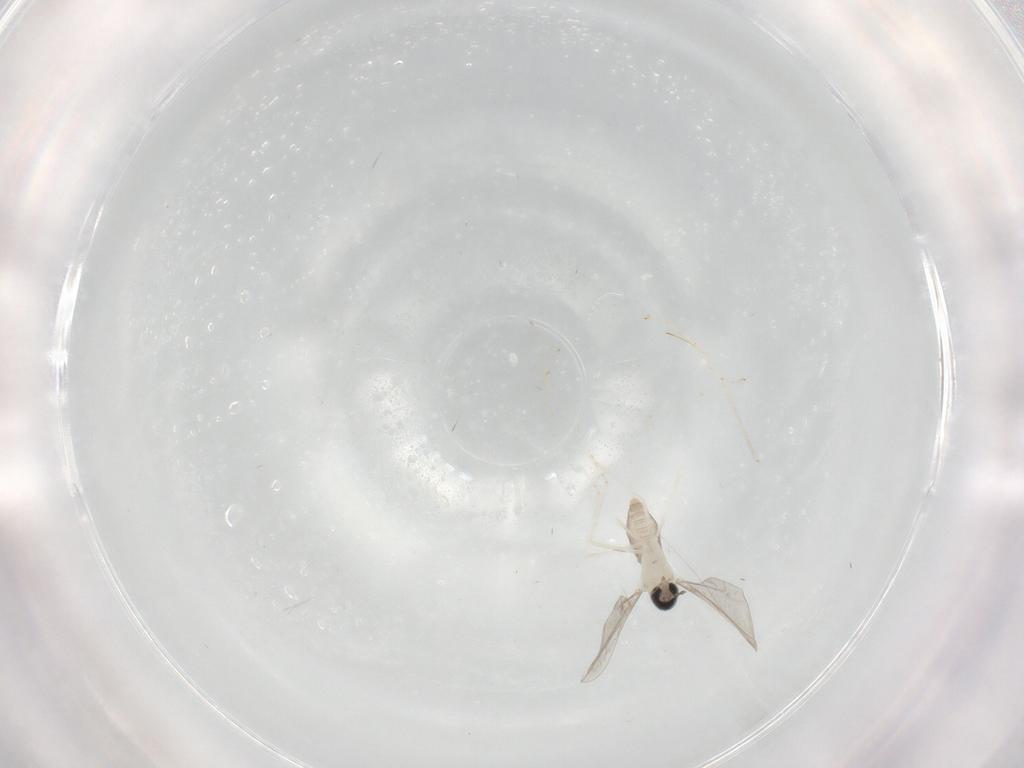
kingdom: Animalia
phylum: Arthropoda
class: Insecta
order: Diptera
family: Cecidomyiidae
